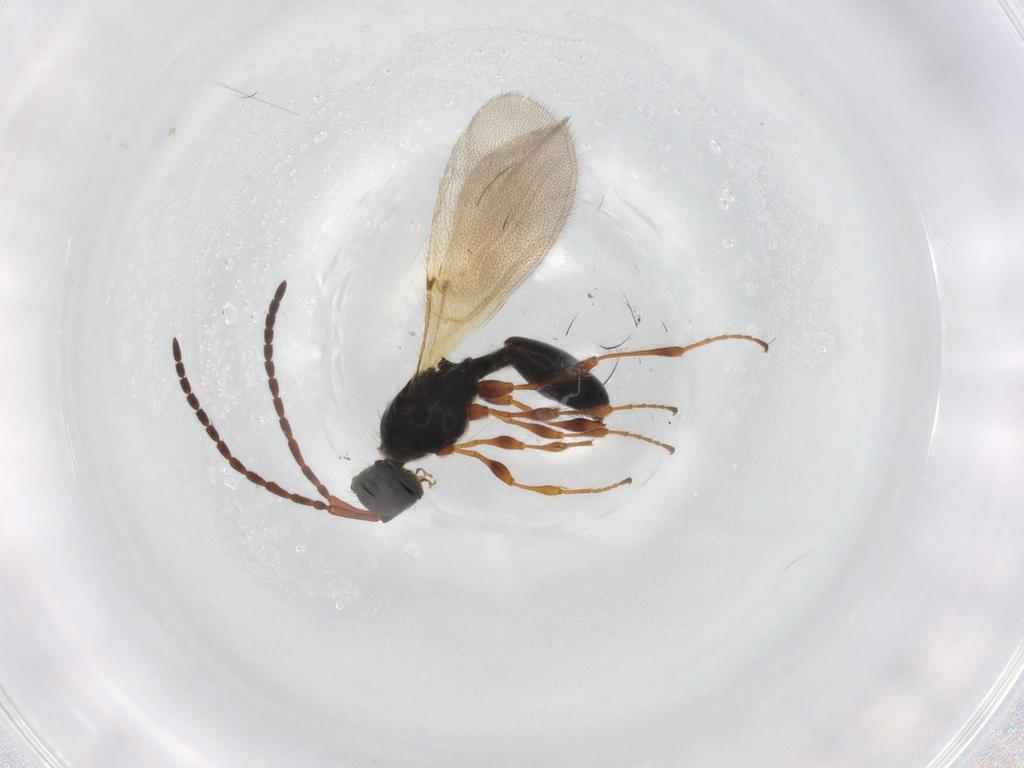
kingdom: Animalia
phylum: Arthropoda
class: Insecta
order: Hymenoptera
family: Diapriidae
